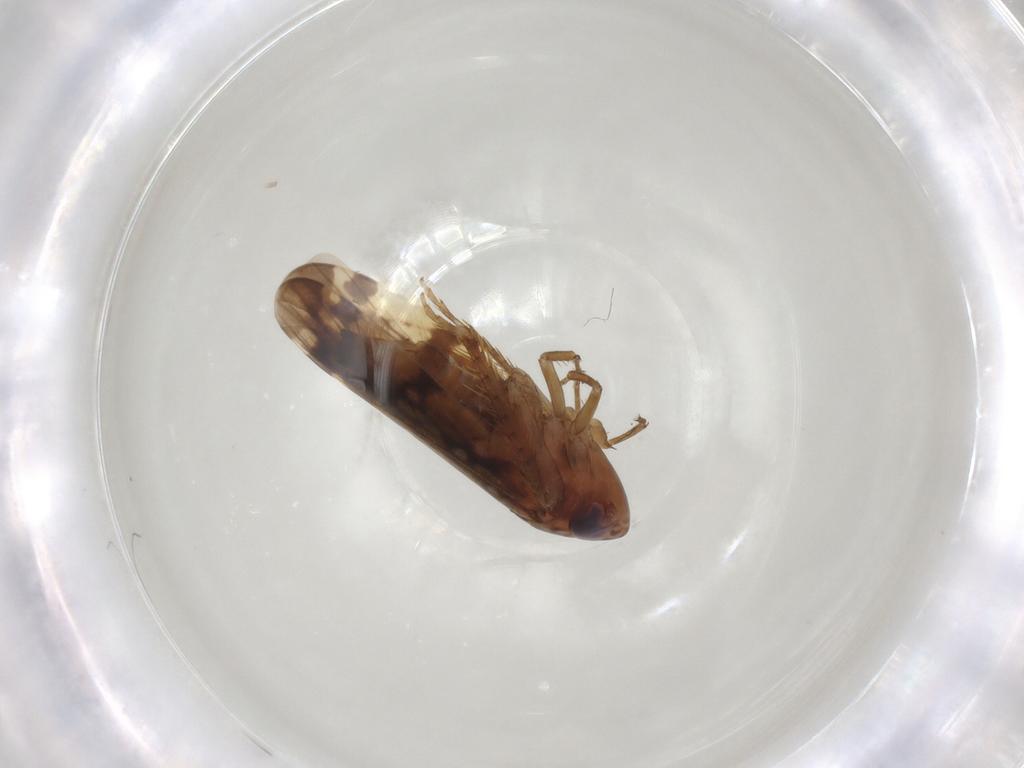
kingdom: Animalia
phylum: Arthropoda
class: Insecta
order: Hemiptera
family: Cicadellidae
